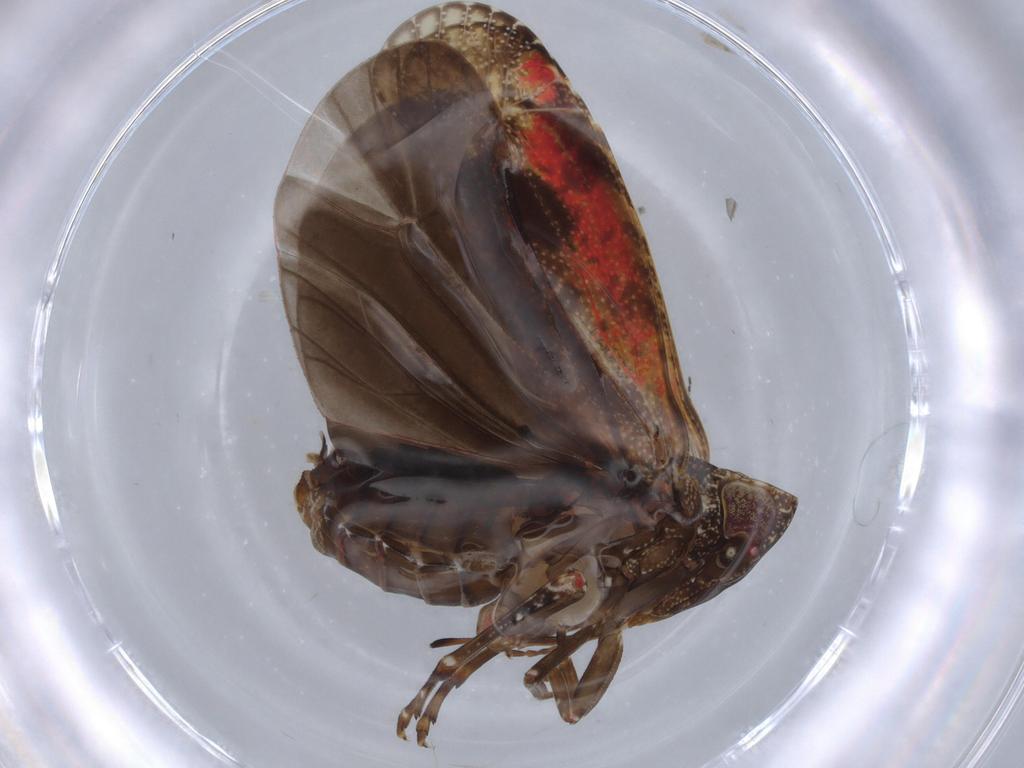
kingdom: Animalia
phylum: Arthropoda
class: Insecta
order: Hemiptera
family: Achilidae
